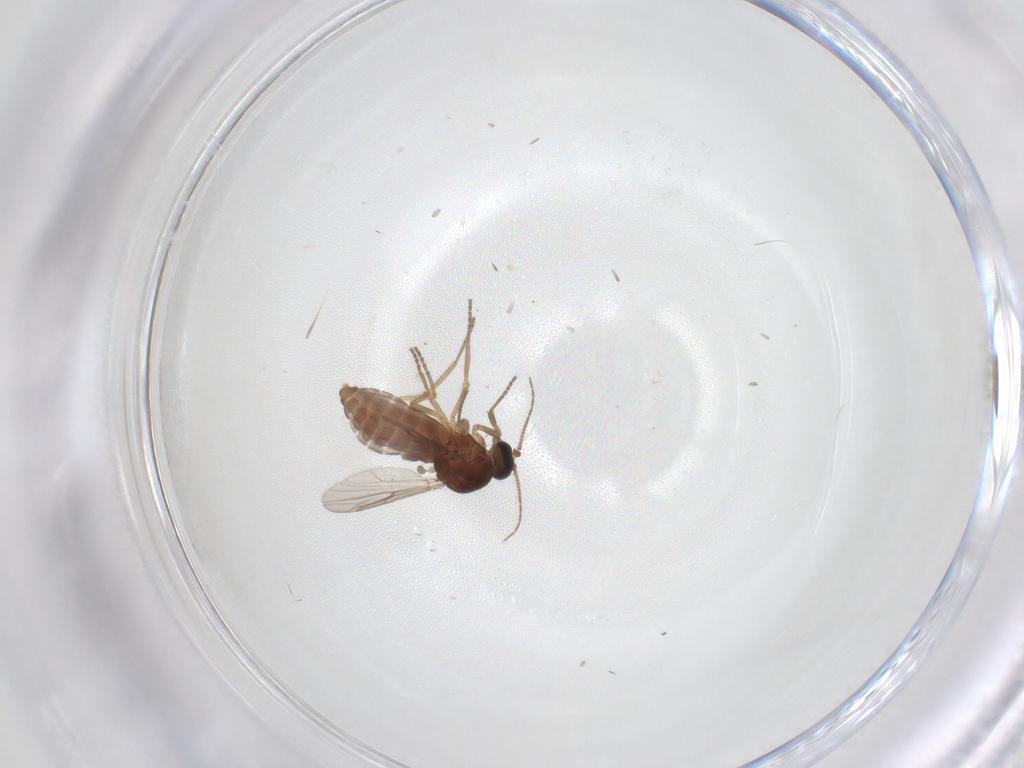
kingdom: Animalia
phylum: Arthropoda
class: Insecta
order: Diptera
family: Ceratopogonidae
